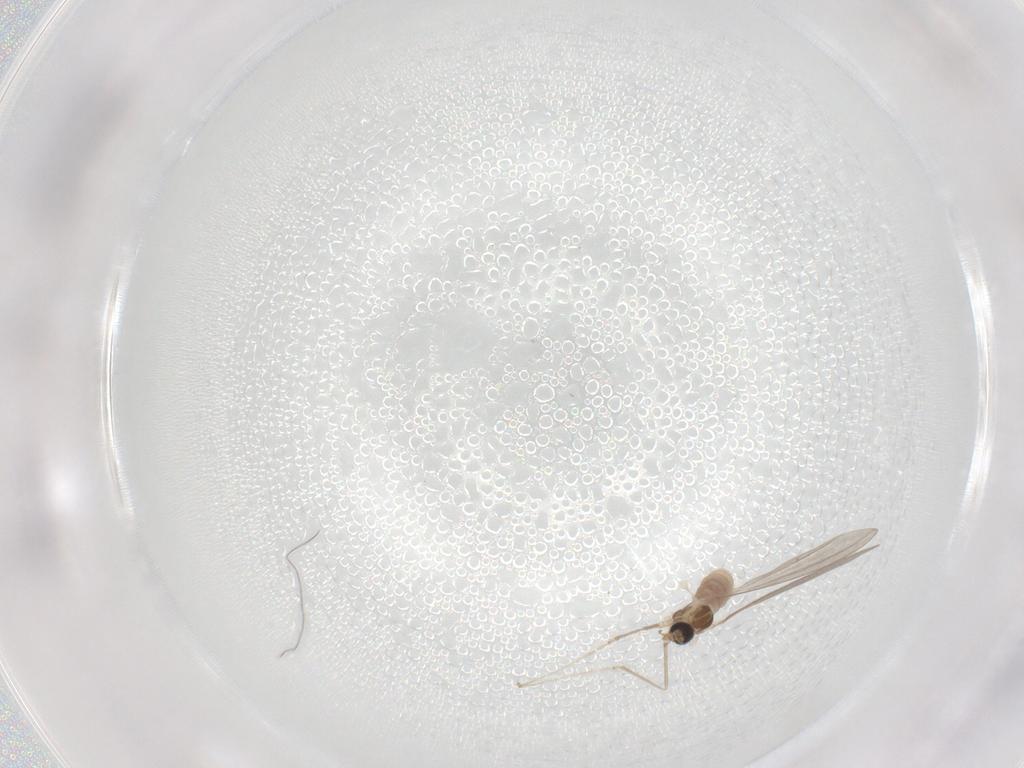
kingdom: Animalia
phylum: Arthropoda
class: Insecta
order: Diptera
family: Cecidomyiidae
